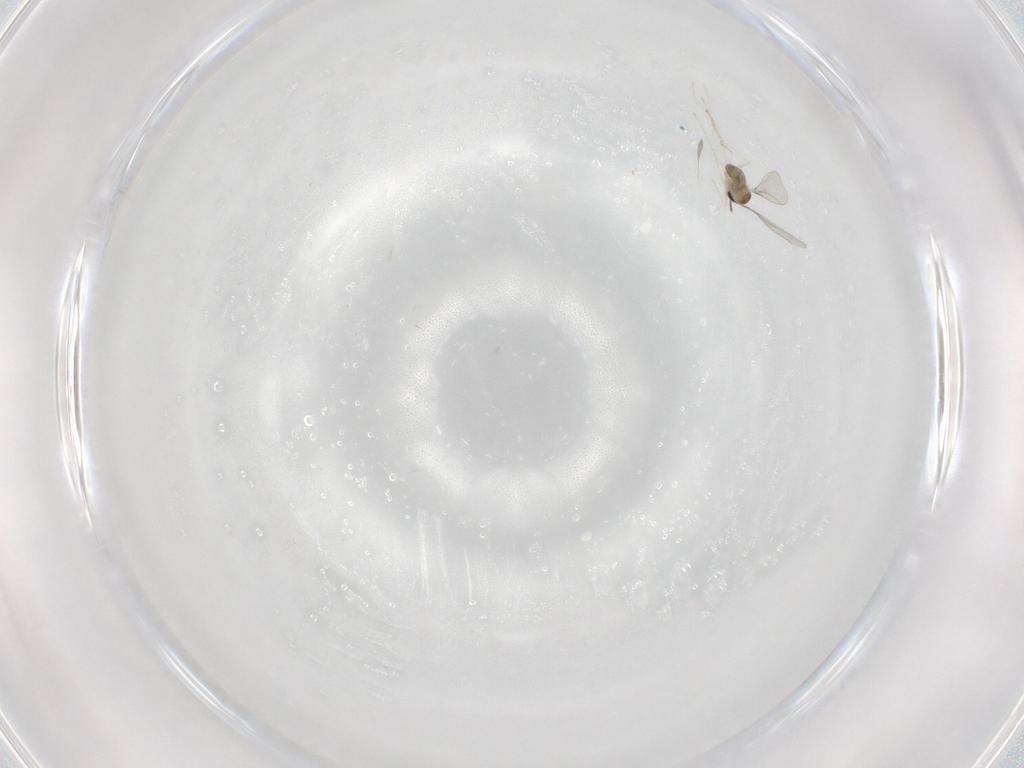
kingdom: Animalia
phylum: Arthropoda
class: Insecta
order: Diptera
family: Cecidomyiidae
